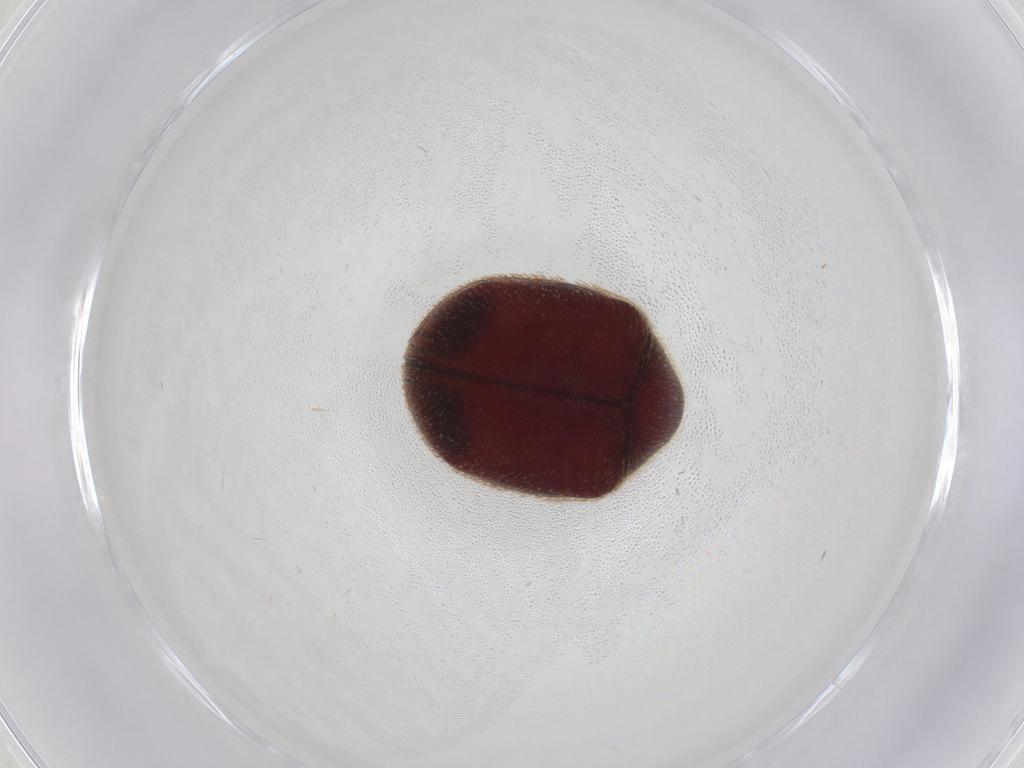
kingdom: Animalia
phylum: Arthropoda
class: Insecta
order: Coleoptera
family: Ptinidae
